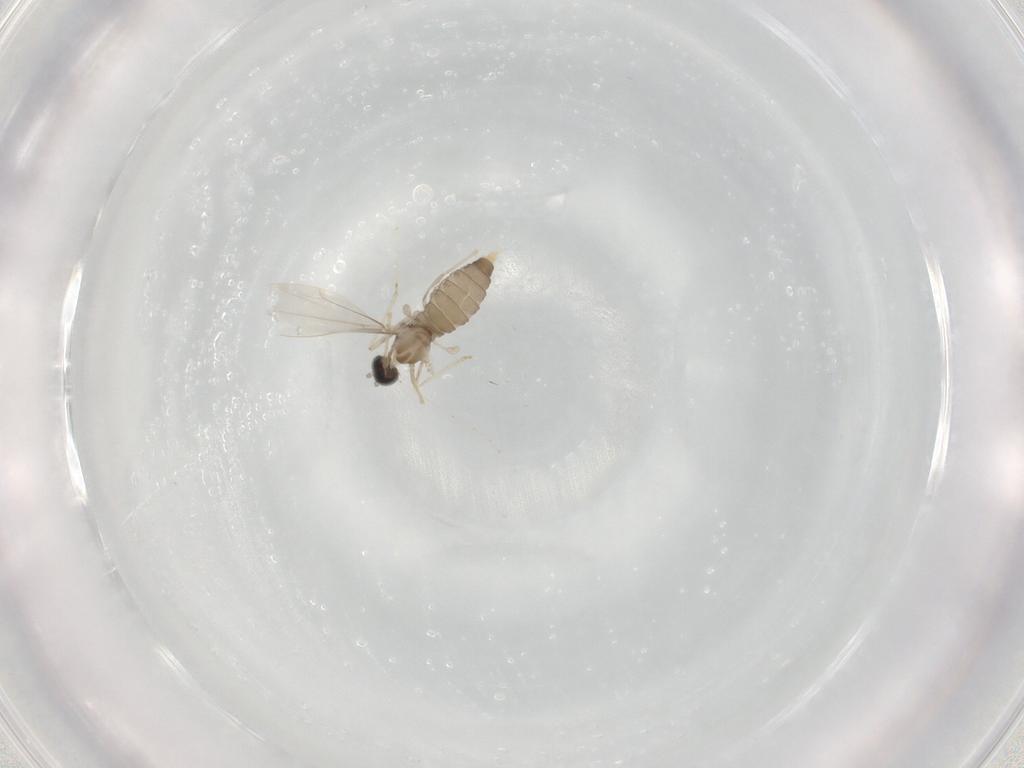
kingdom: Animalia
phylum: Arthropoda
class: Insecta
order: Diptera
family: Cecidomyiidae
